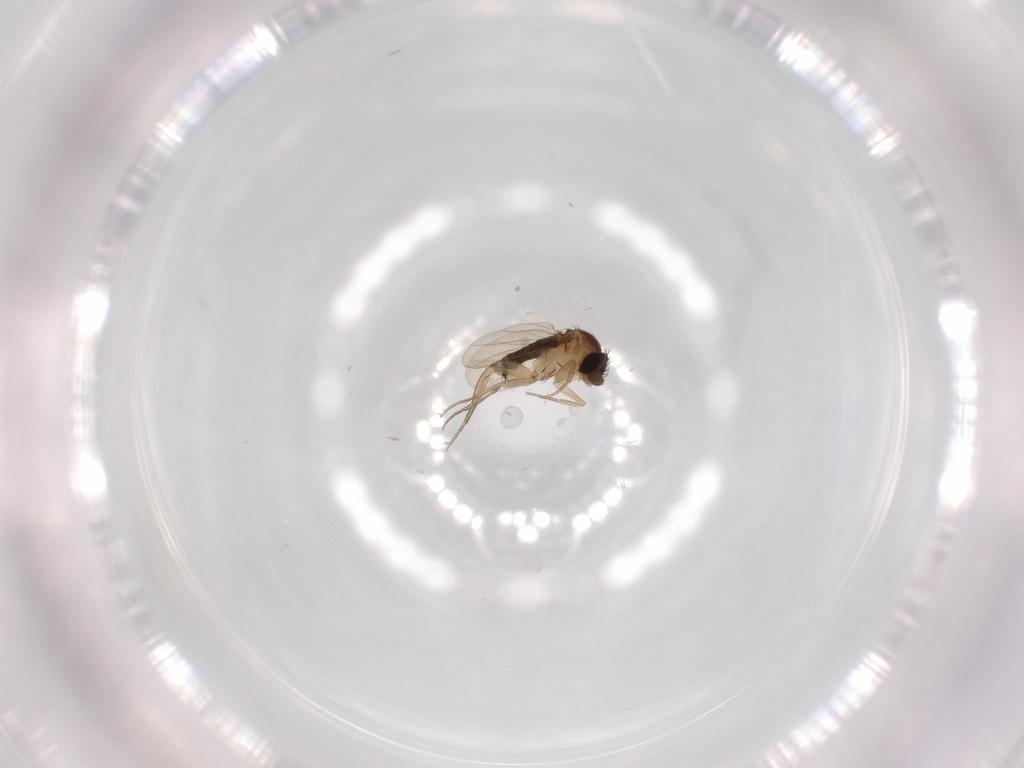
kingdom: Animalia
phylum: Arthropoda
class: Insecta
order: Diptera
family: Phoridae
